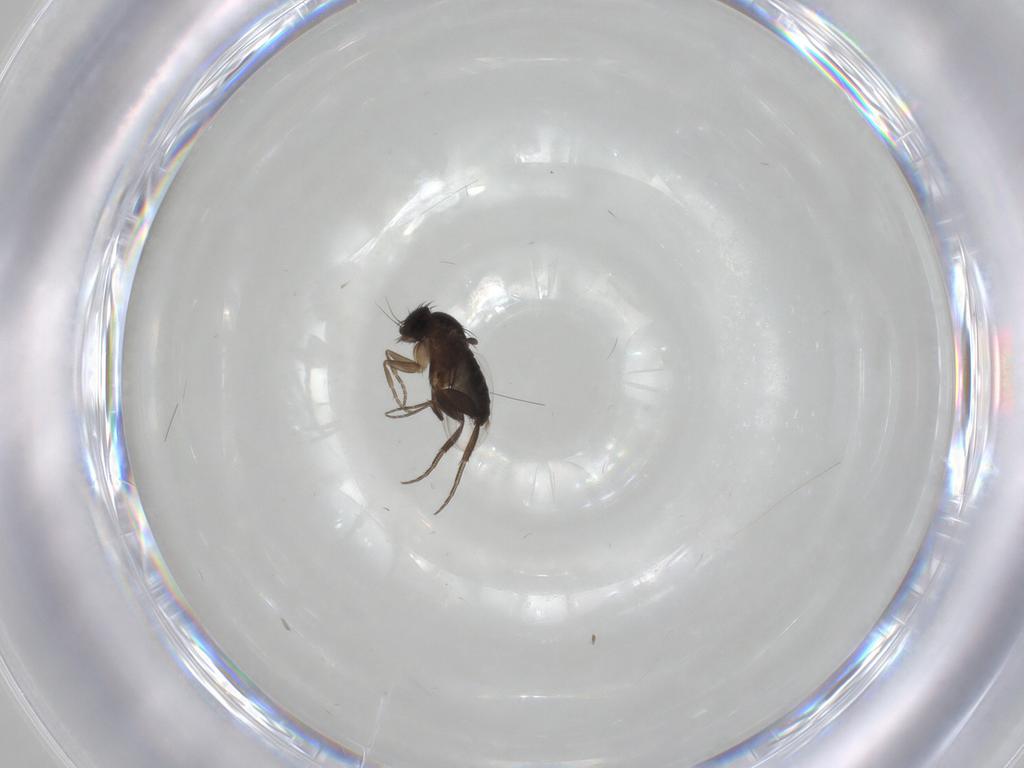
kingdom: Animalia
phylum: Arthropoda
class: Insecta
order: Diptera
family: Phoridae
